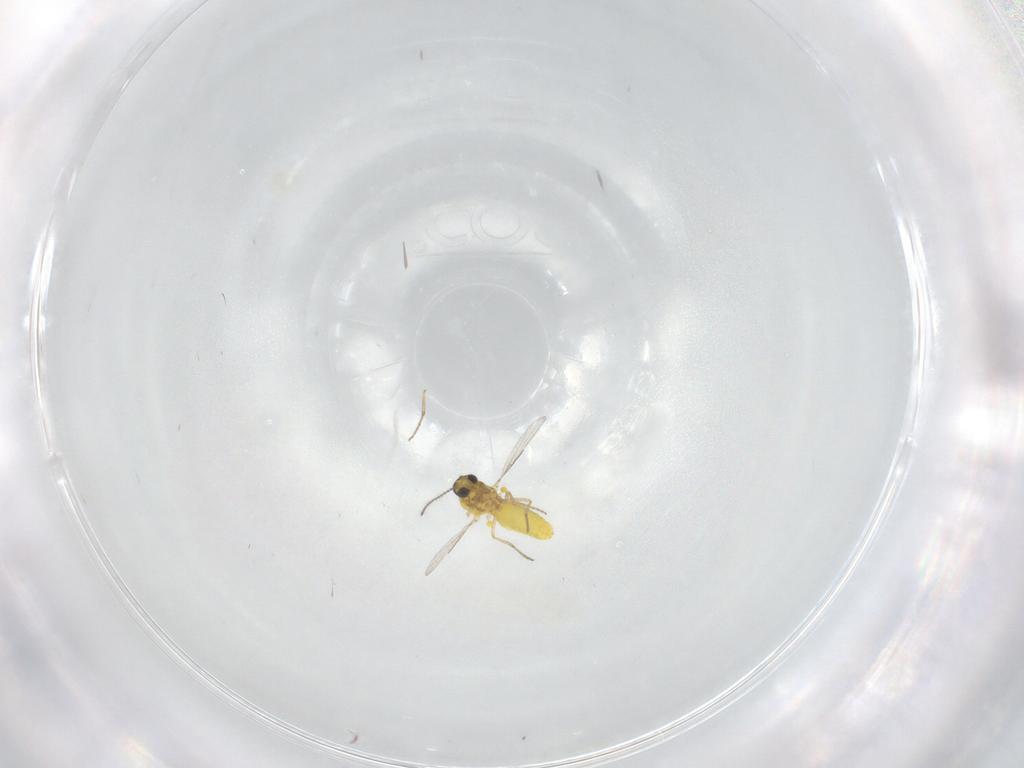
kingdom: Animalia
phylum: Arthropoda
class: Insecta
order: Diptera
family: Ceratopogonidae
